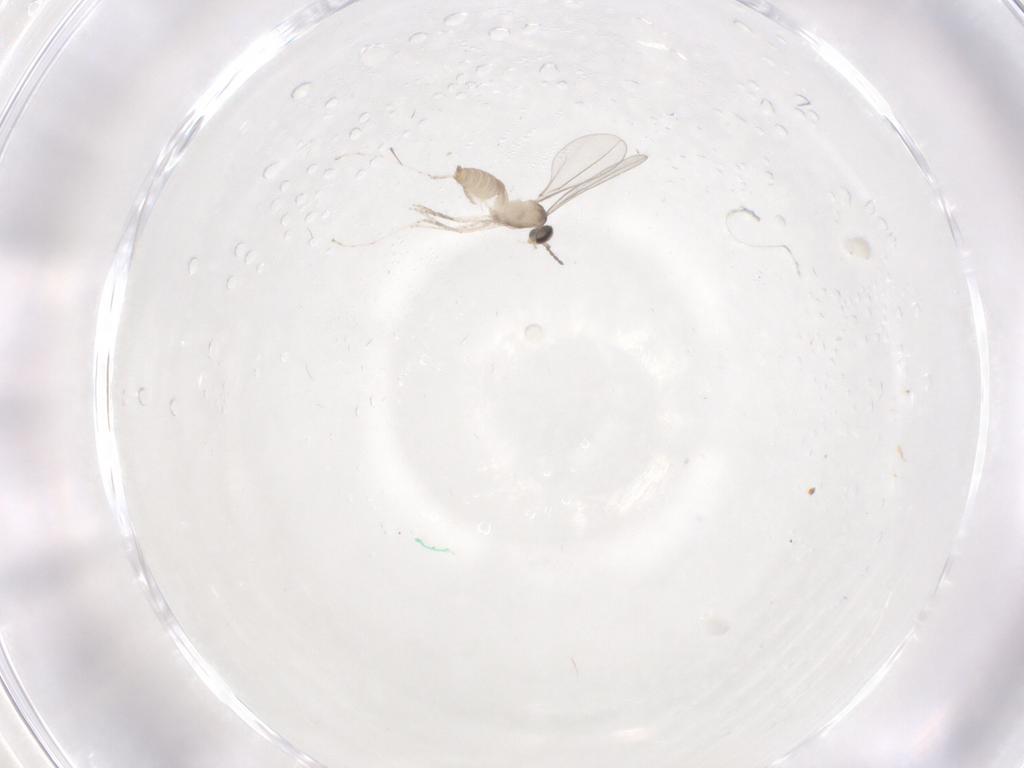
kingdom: Animalia
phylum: Arthropoda
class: Insecta
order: Diptera
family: Cecidomyiidae
